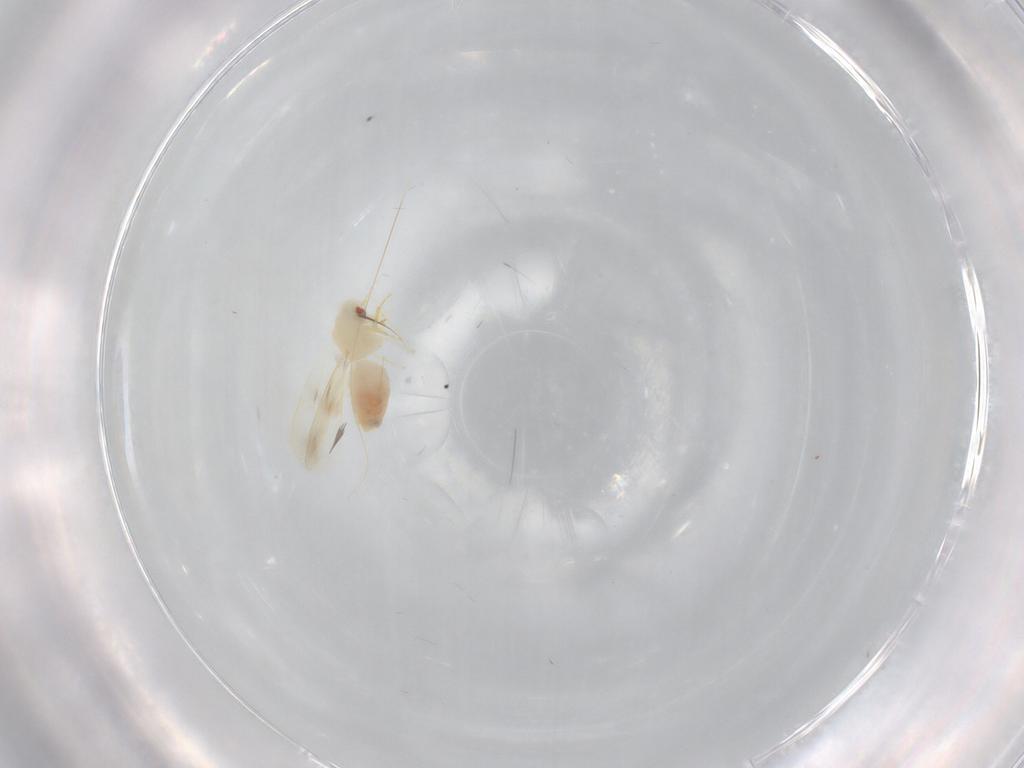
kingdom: Animalia
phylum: Arthropoda
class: Insecta
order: Hemiptera
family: Aleyrodidae
